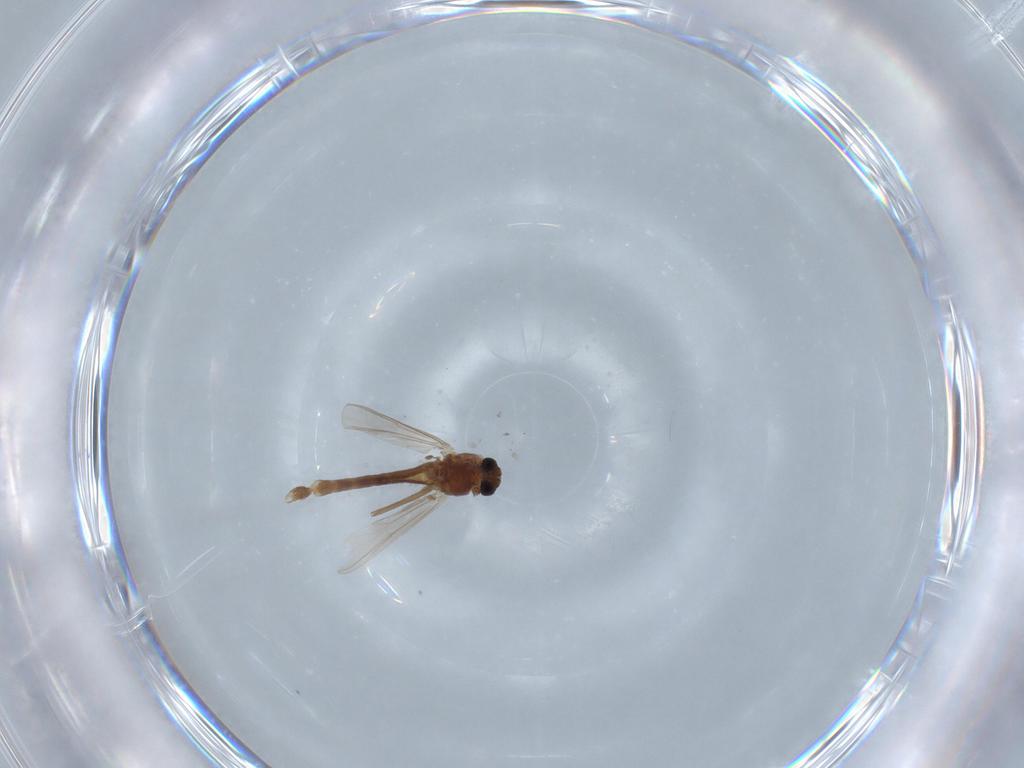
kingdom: Animalia
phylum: Arthropoda
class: Insecta
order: Diptera
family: Chironomidae
